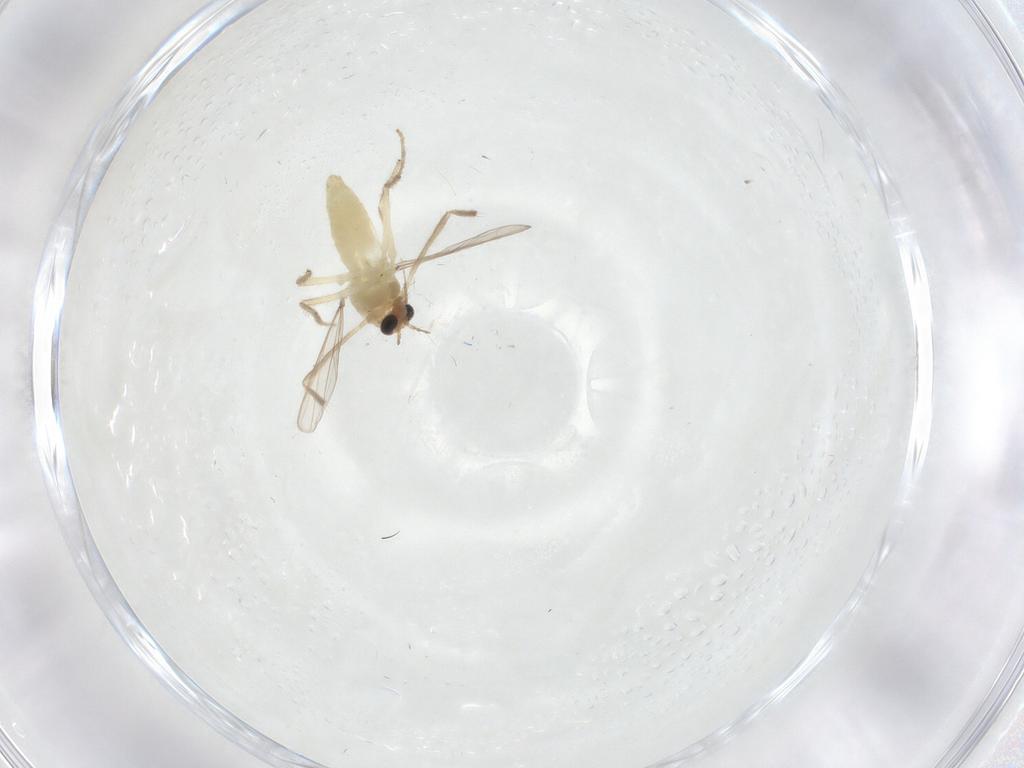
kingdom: Animalia
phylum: Arthropoda
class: Insecta
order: Diptera
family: Chironomidae
